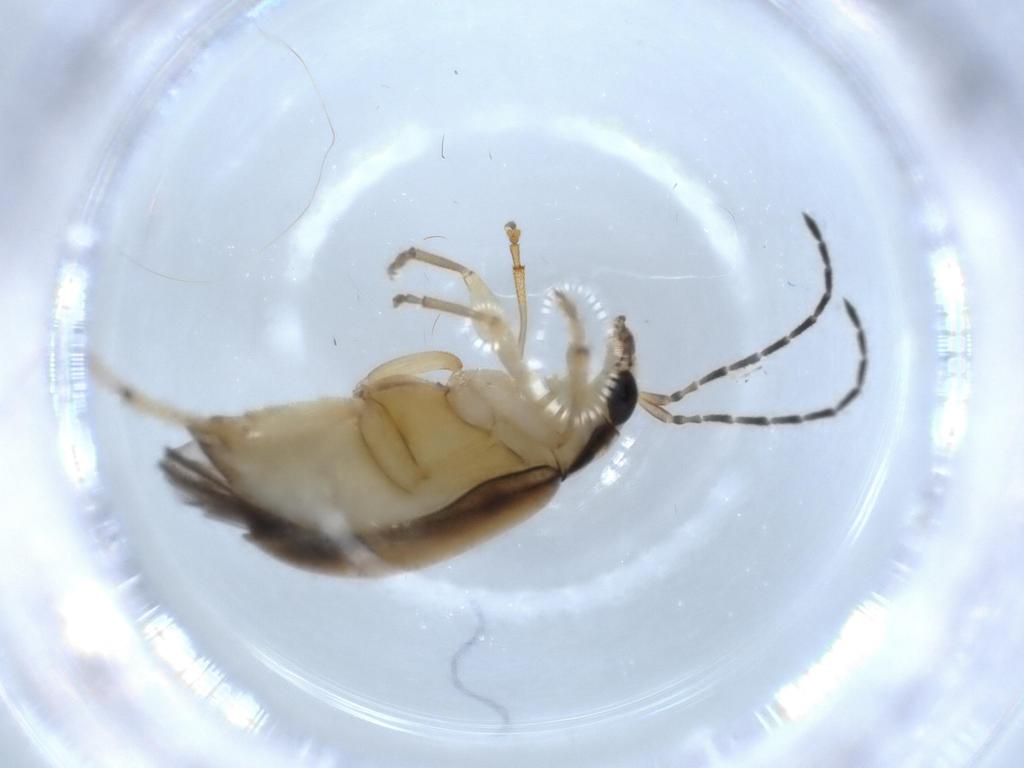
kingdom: Animalia
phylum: Arthropoda
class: Insecta
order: Coleoptera
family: Chrysomelidae
